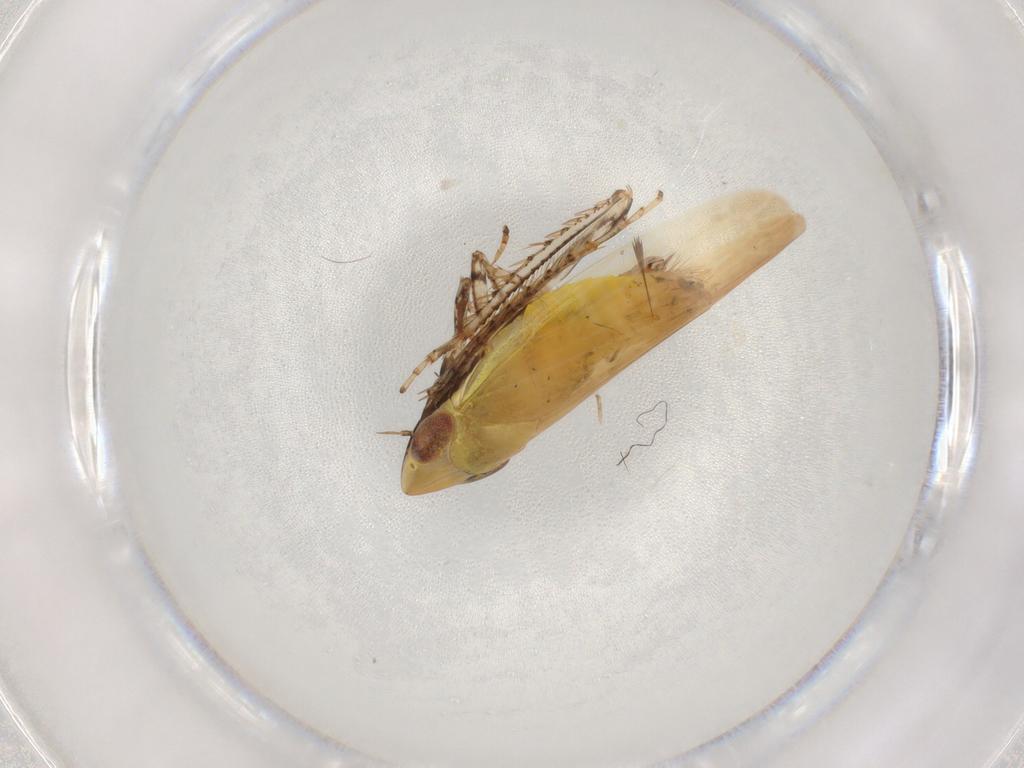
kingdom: Animalia
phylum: Arthropoda
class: Insecta
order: Hemiptera
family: Cicadellidae
